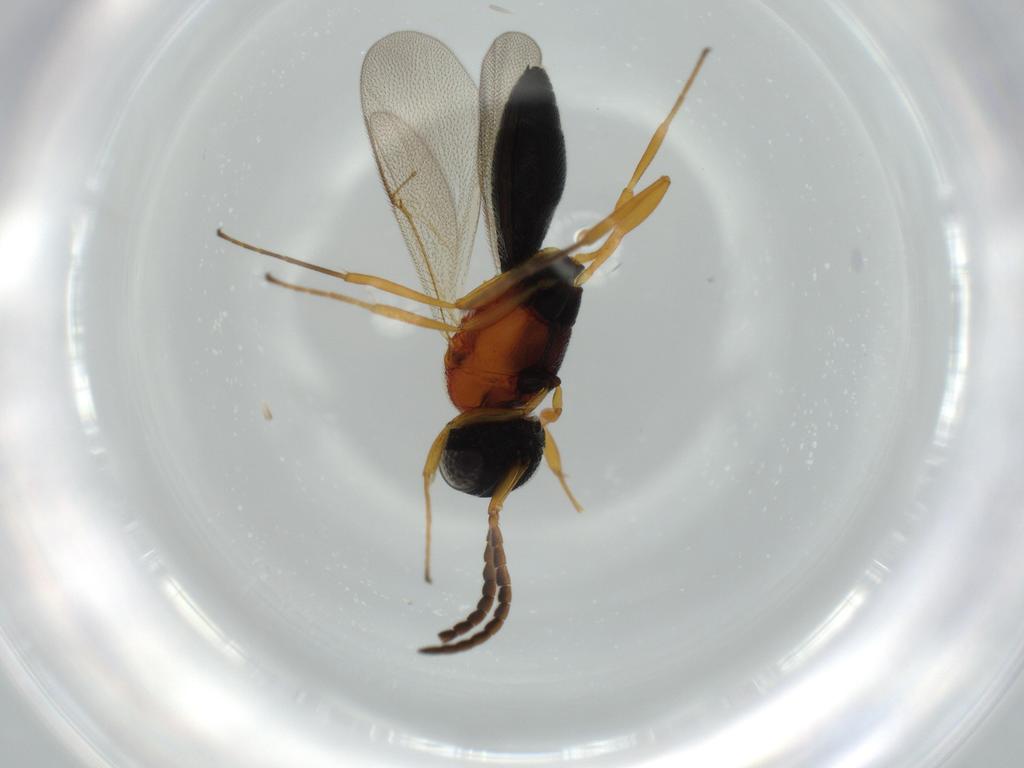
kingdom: Animalia
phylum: Arthropoda
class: Insecta
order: Hymenoptera
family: Scelionidae
